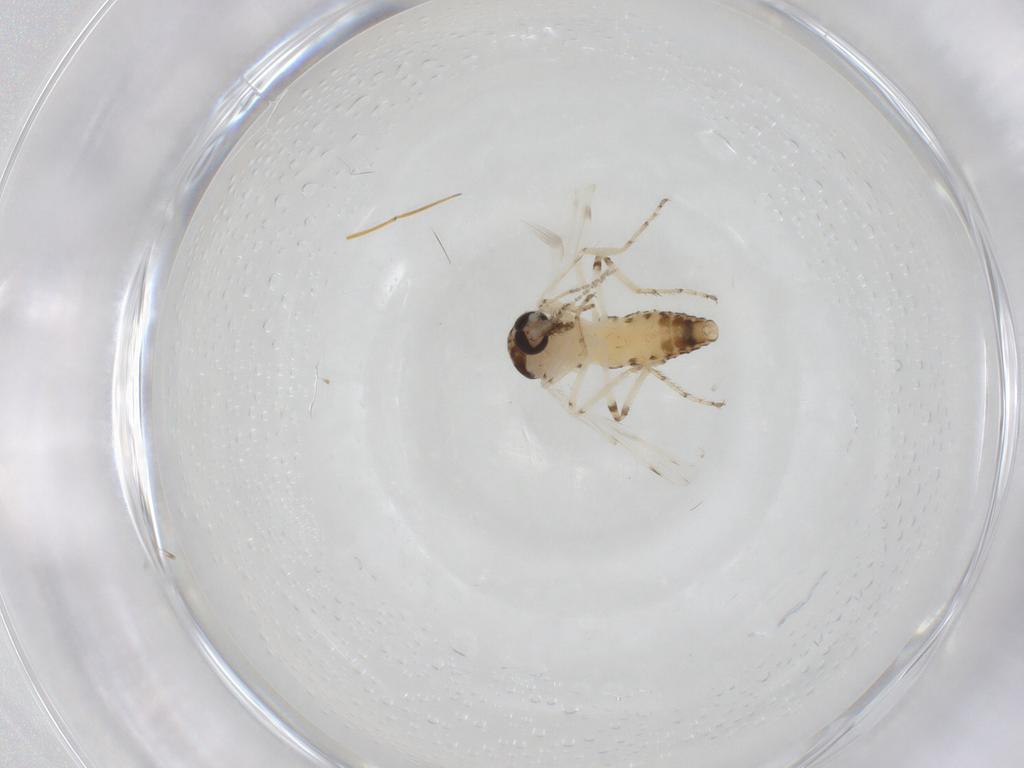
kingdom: Animalia
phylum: Arthropoda
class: Insecta
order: Diptera
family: Ceratopogonidae
